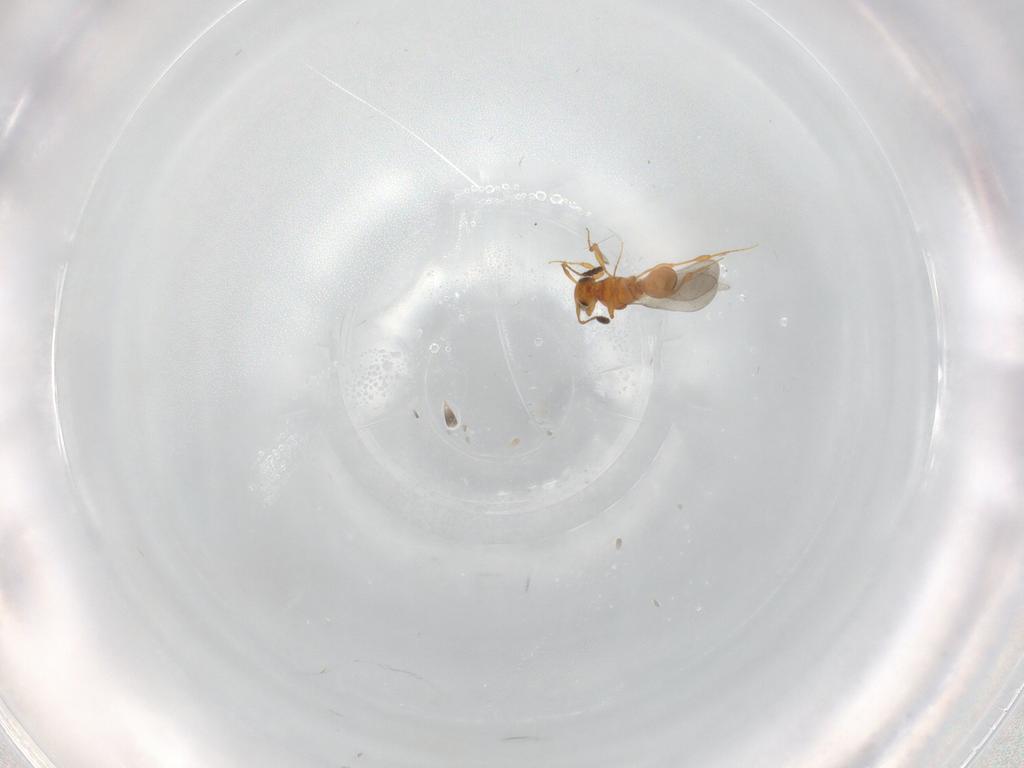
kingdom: Animalia
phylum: Arthropoda
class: Insecta
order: Hymenoptera
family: Platygastridae
